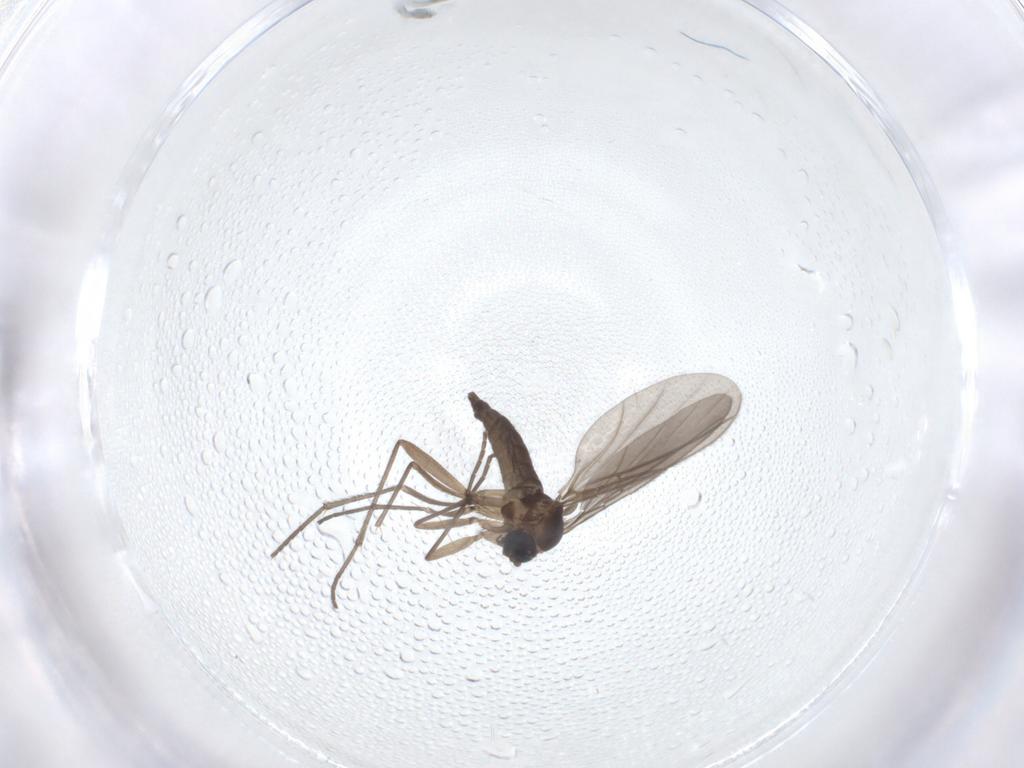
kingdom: Animalia
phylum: Arthropoda
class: Insecta
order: Diptera
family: Sciaridae
